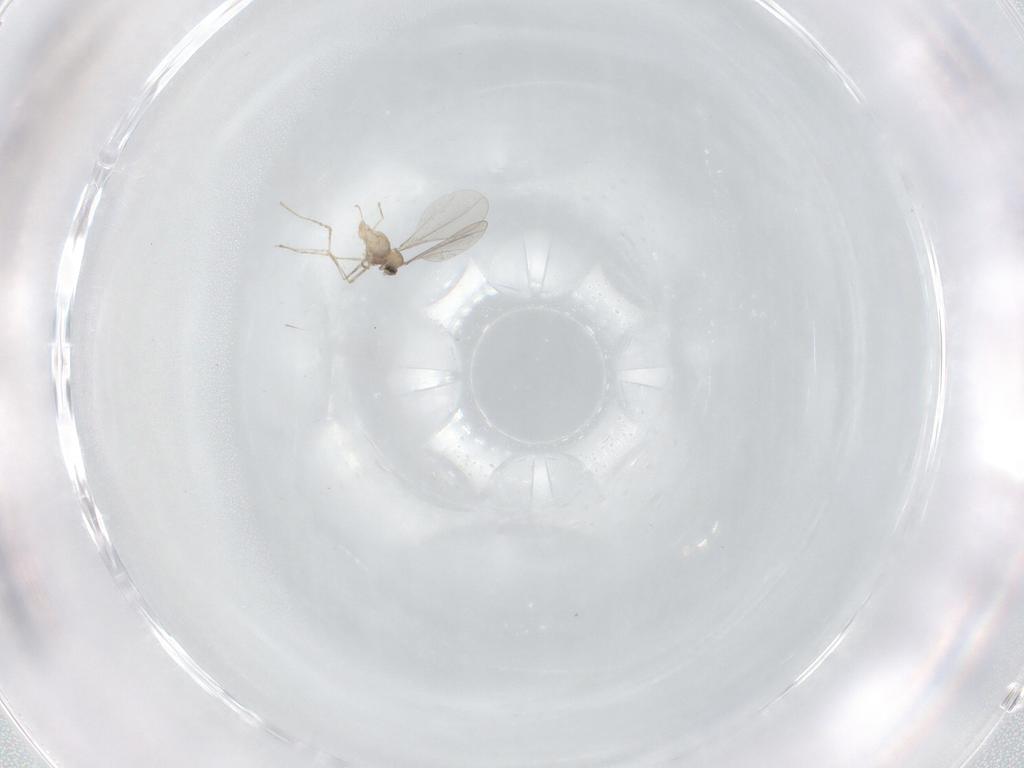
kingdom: Animalia
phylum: Arthropoda
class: Insecta
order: Diptera
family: Cecidomyiidae
